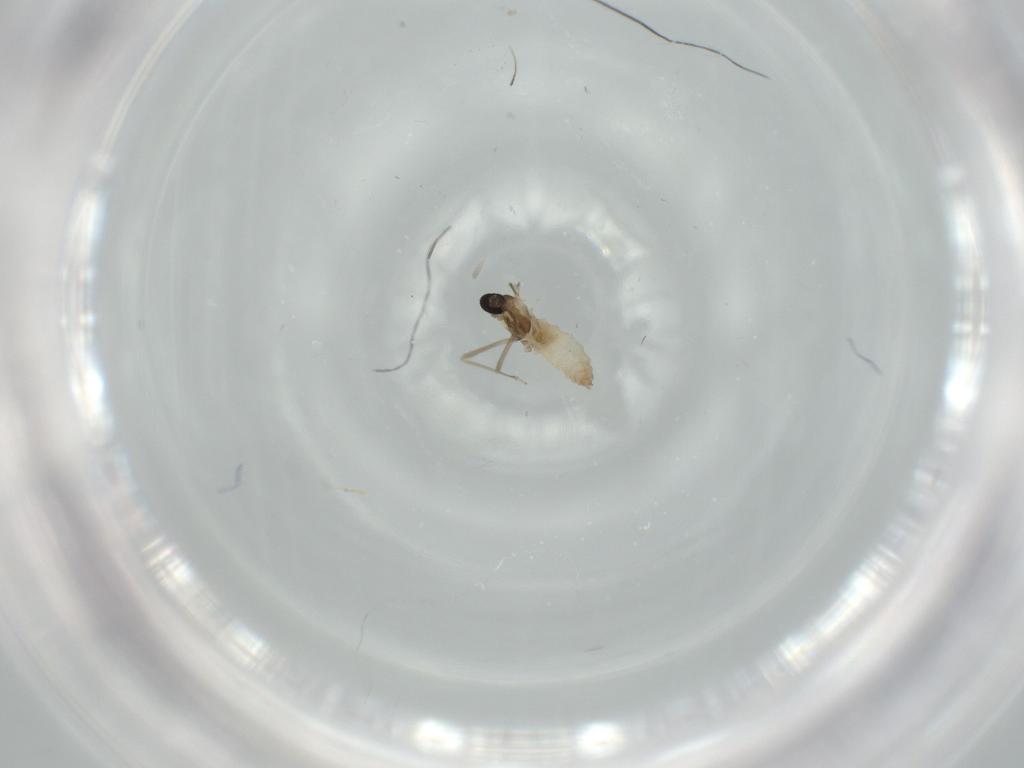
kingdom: Animalia
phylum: Arthropoda
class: Insecta
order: Diptera
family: Cecidomyiidae
